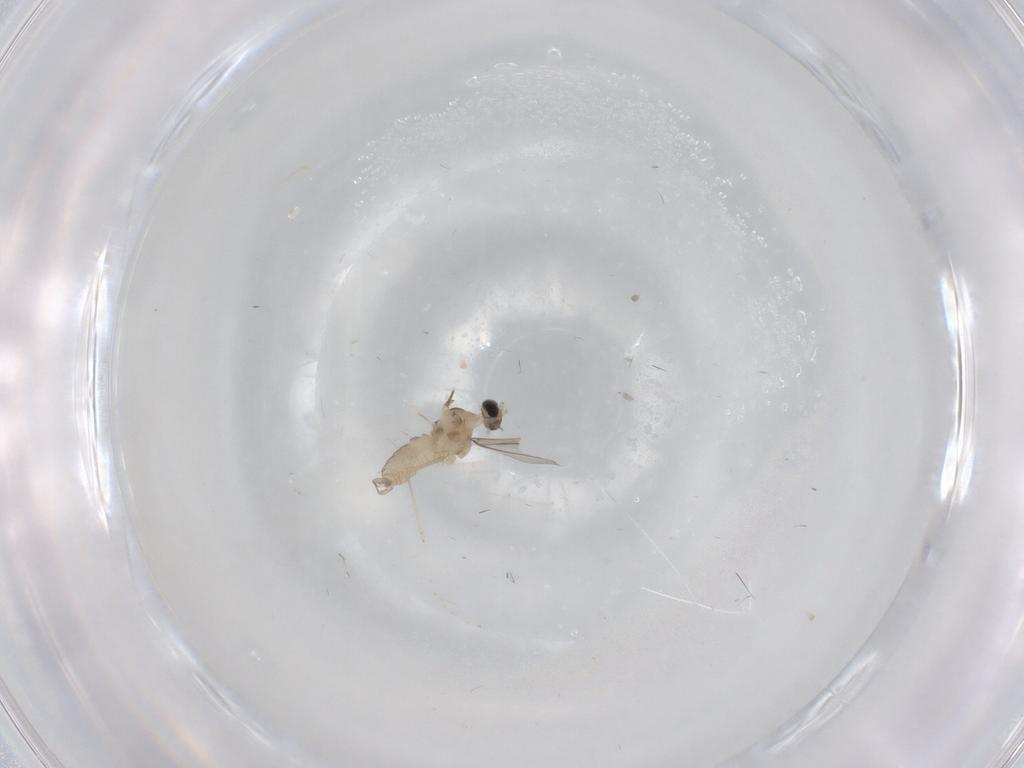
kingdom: Animalia
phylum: Arthropoda
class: Insecta
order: Diptera
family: Cecidomyiidae
